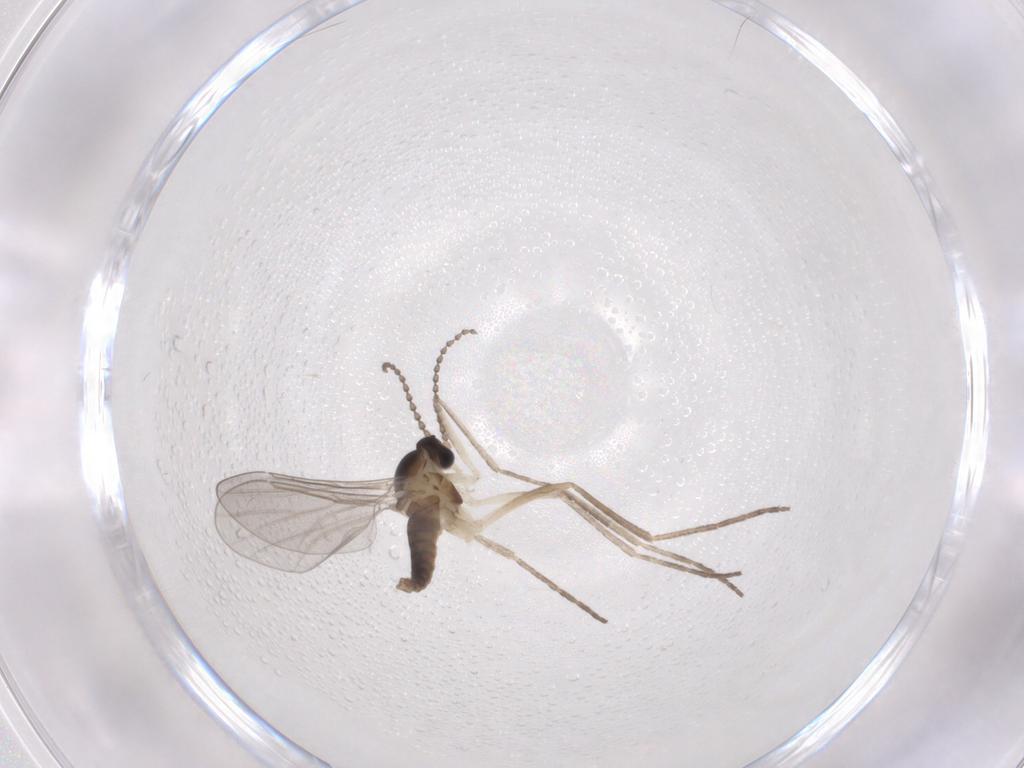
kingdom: Animalia
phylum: Arthropoda
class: Insecta
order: Diptera
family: Cecidomyiidae
